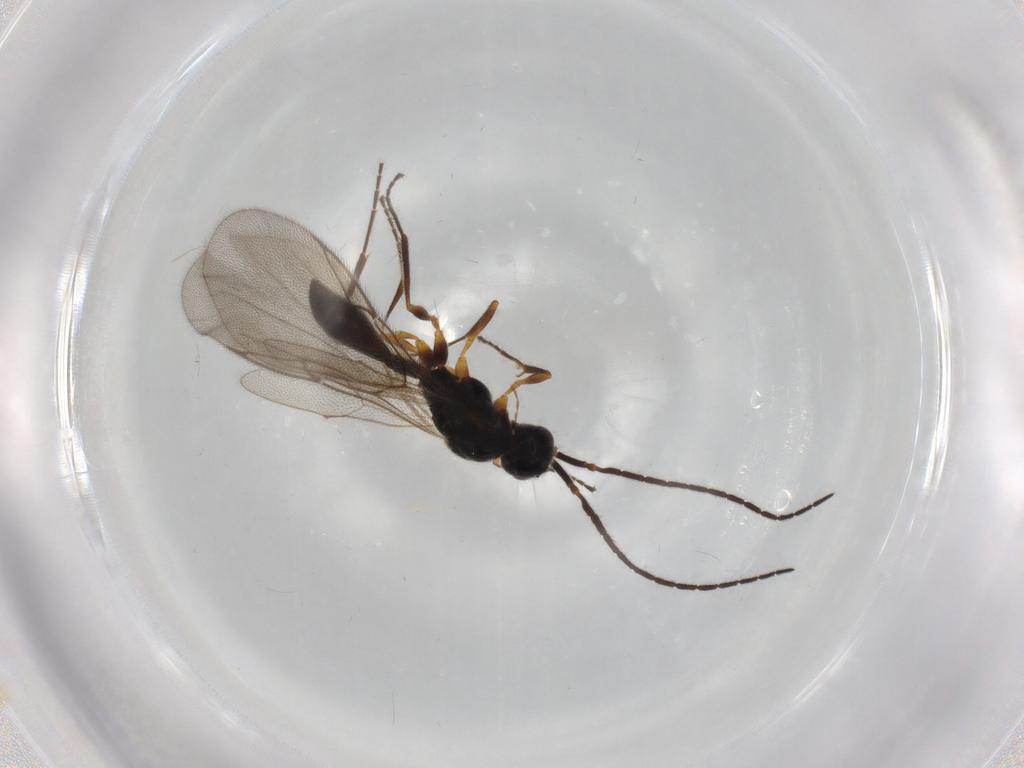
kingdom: Animalia
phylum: Arthropoda
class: Insecta
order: Hymenoptera
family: Diapriidae
